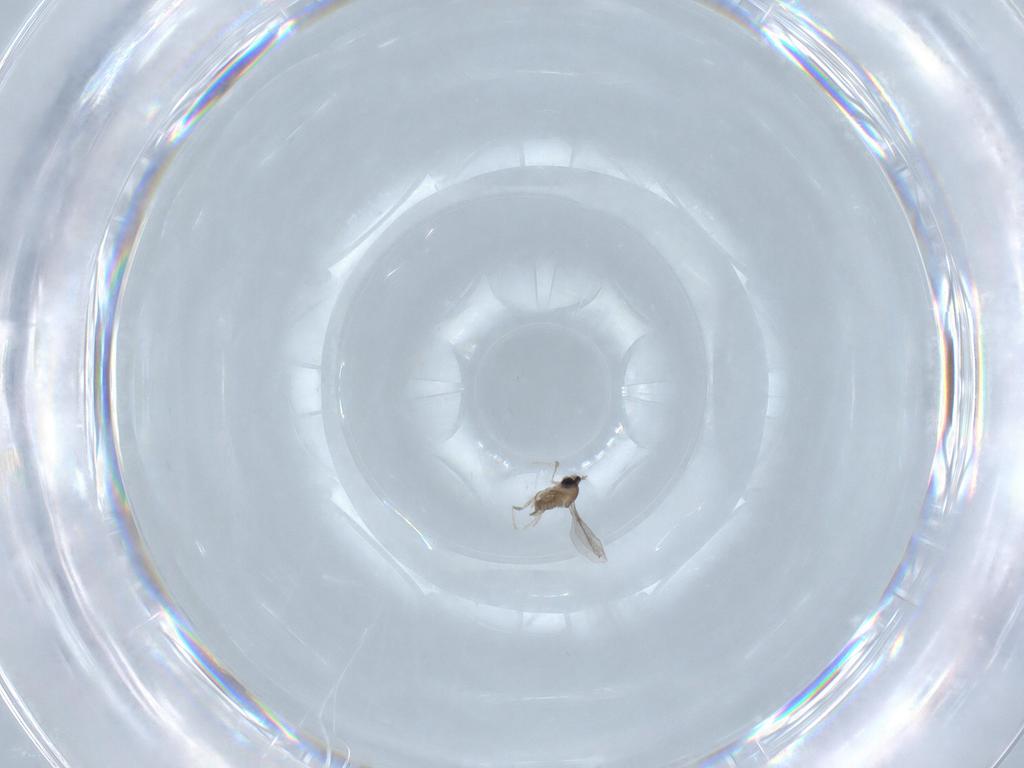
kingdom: Animalia
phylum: Arthropoda
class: Insecta
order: Diptera
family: Cecidomyiidae
